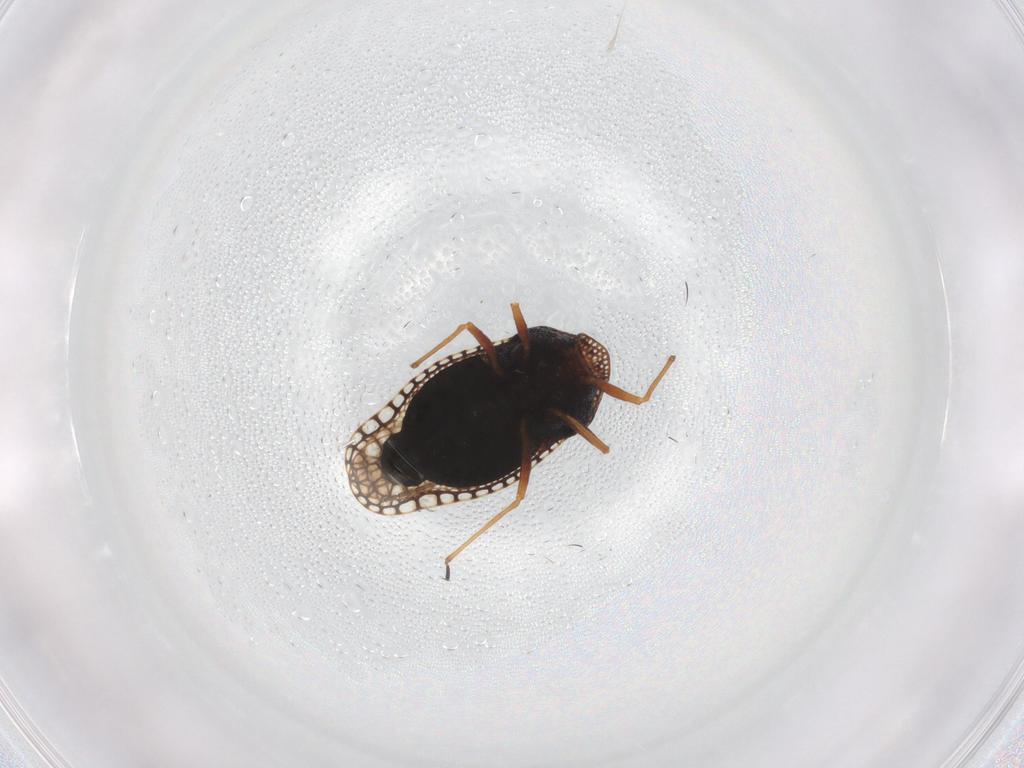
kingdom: Animalia
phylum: Arthropoda
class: Insecta
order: Hemiptera
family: Tingidae
